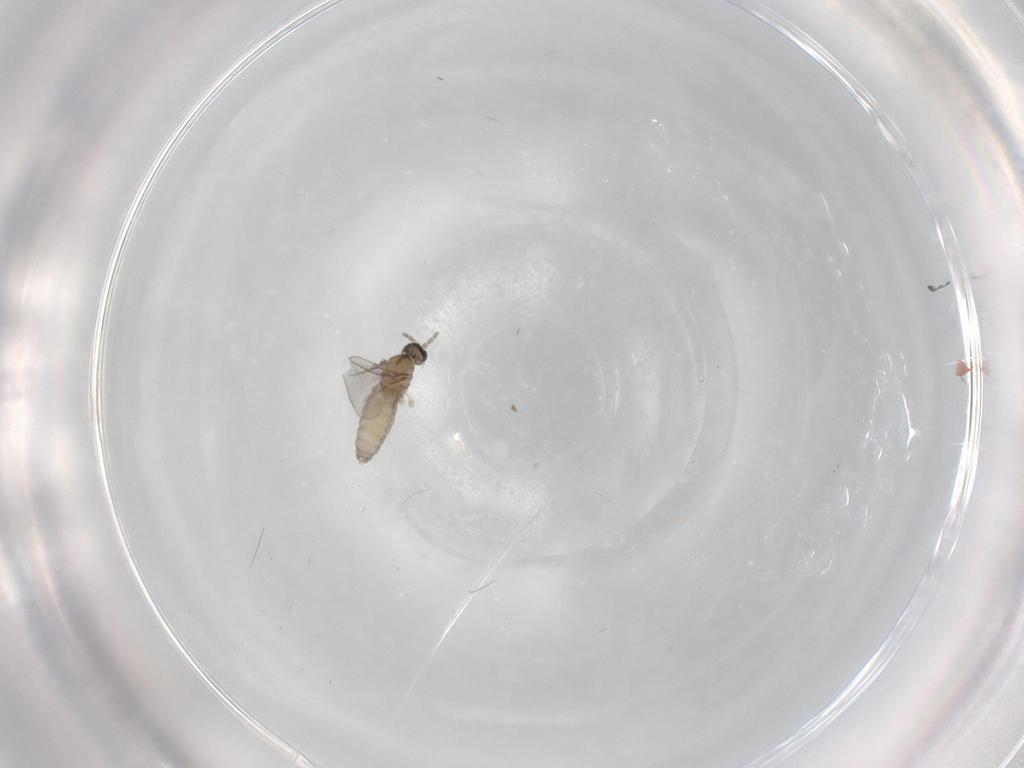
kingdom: Animalia
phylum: Arthropoda
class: Insecta
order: Diptera
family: Cecidomyiidae
